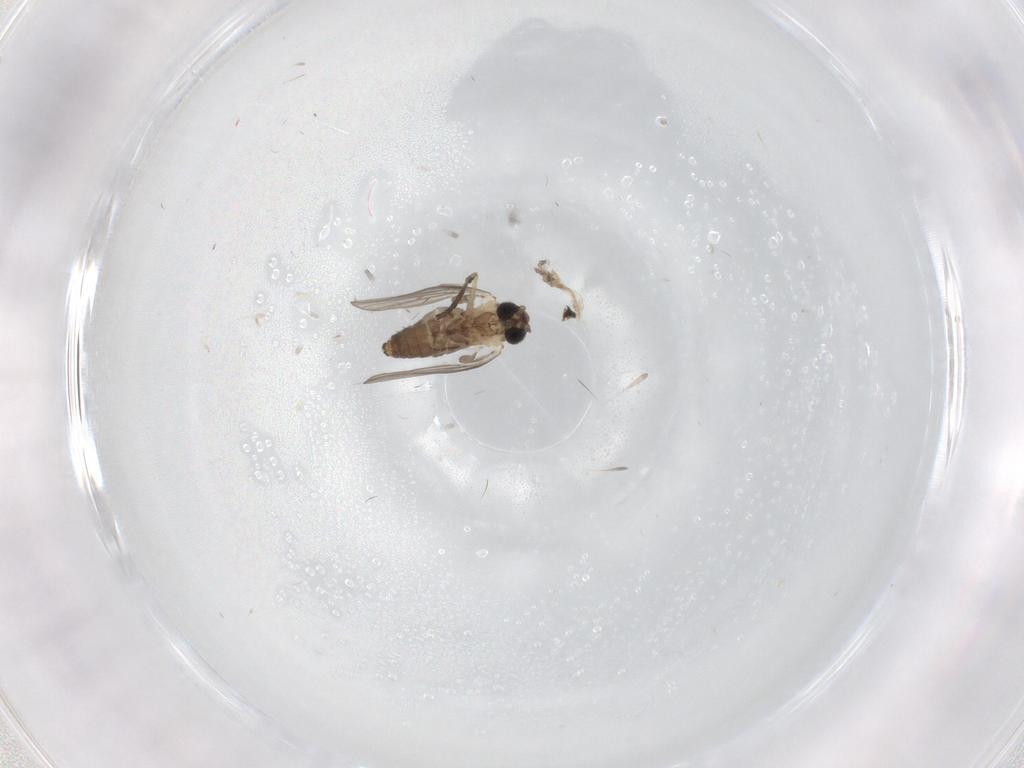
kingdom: Animalia
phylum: Arthropoda
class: Insecta
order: Diptera
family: Psychodidae
